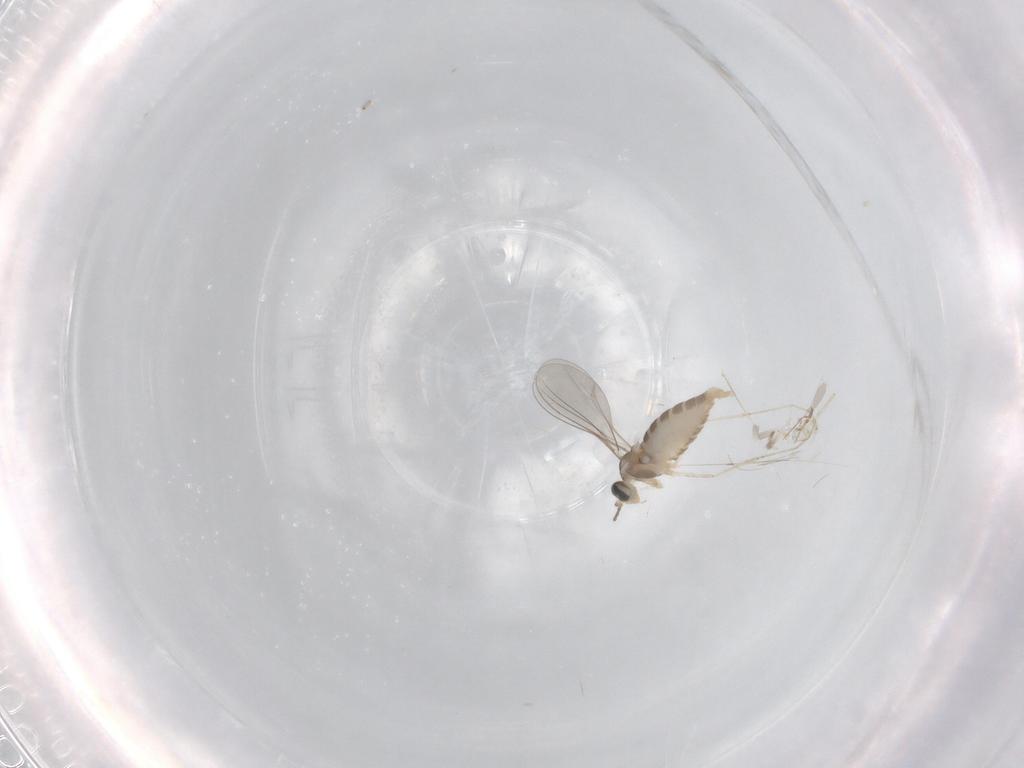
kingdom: Animalia
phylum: Arthropoda
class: Insecta
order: Diptera
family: Cecidomyiidae
